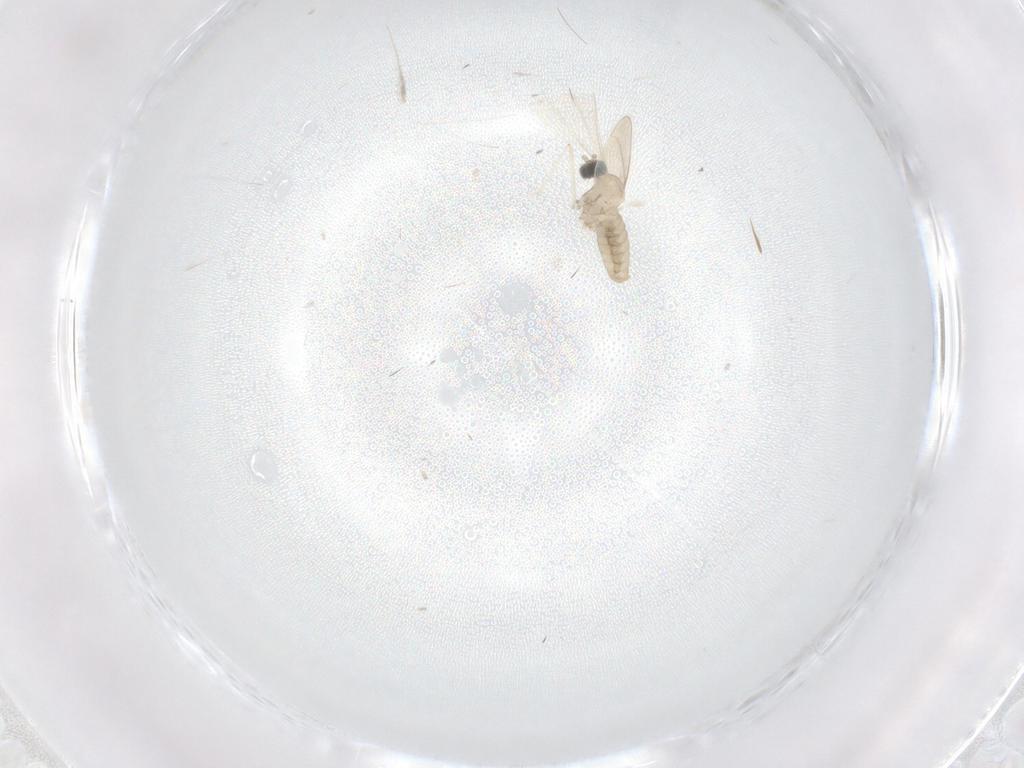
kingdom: Animalia
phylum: Arthropoda
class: Insecta
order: Diptera
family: Cecidomyiidae
